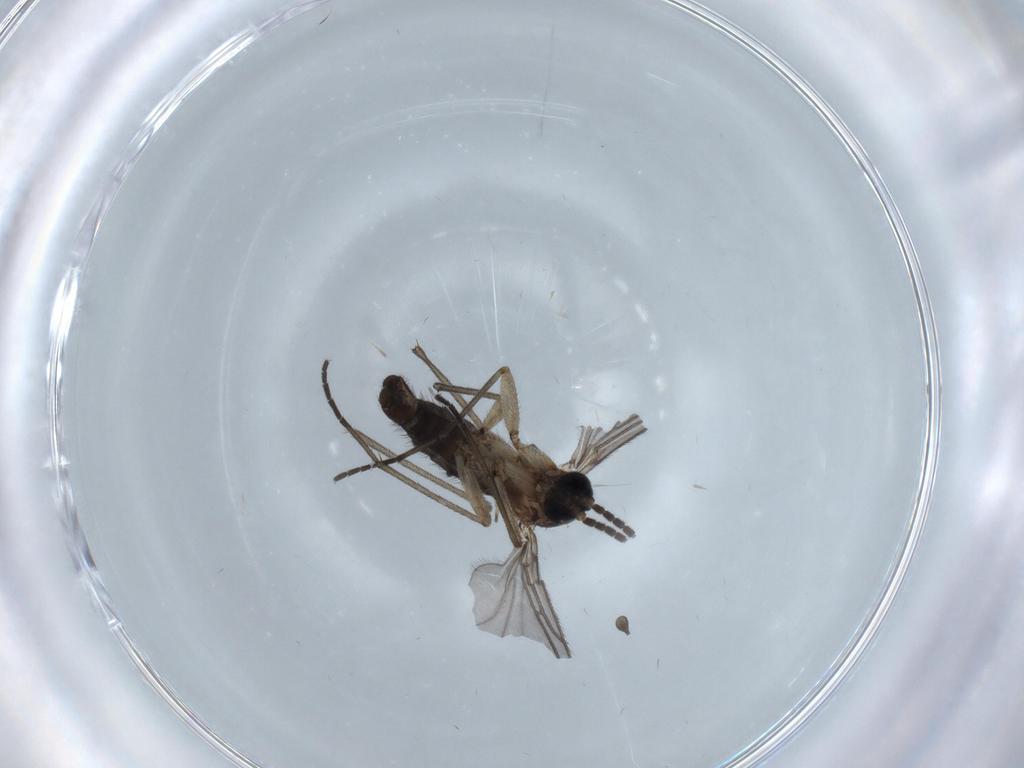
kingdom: Animalia
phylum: Arthropoda
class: Insecta
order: Diptera
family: Sciaridae
